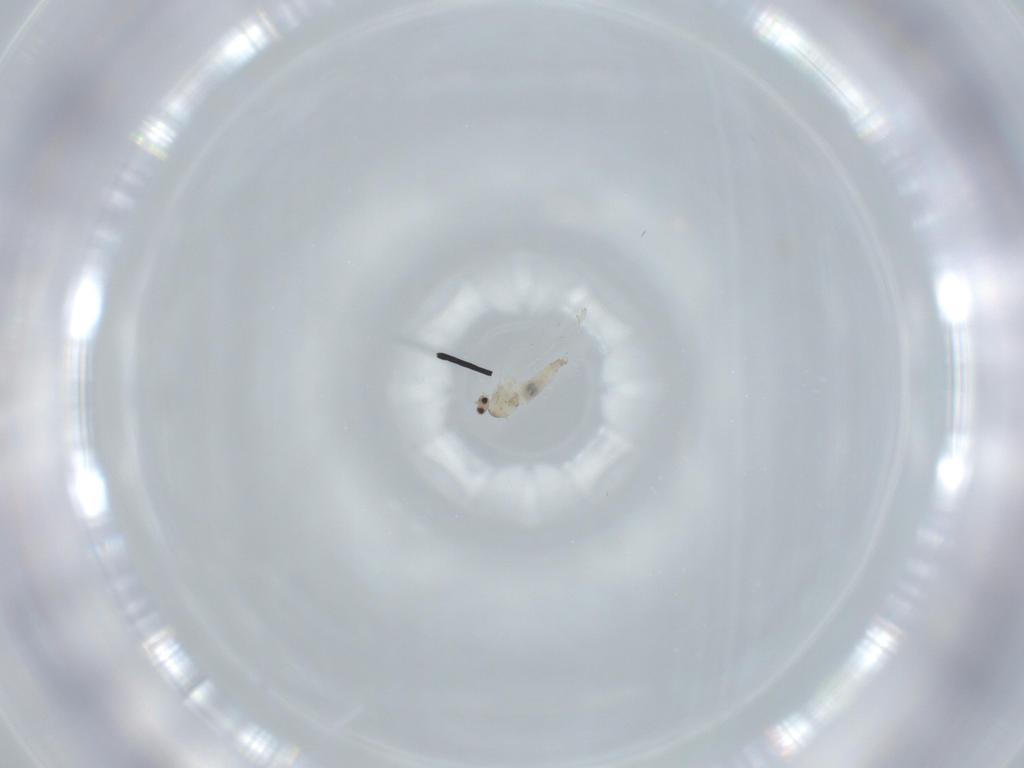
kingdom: Animalia
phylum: Arthropoda
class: Insecta
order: Diptera
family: Cecidomyiidae
